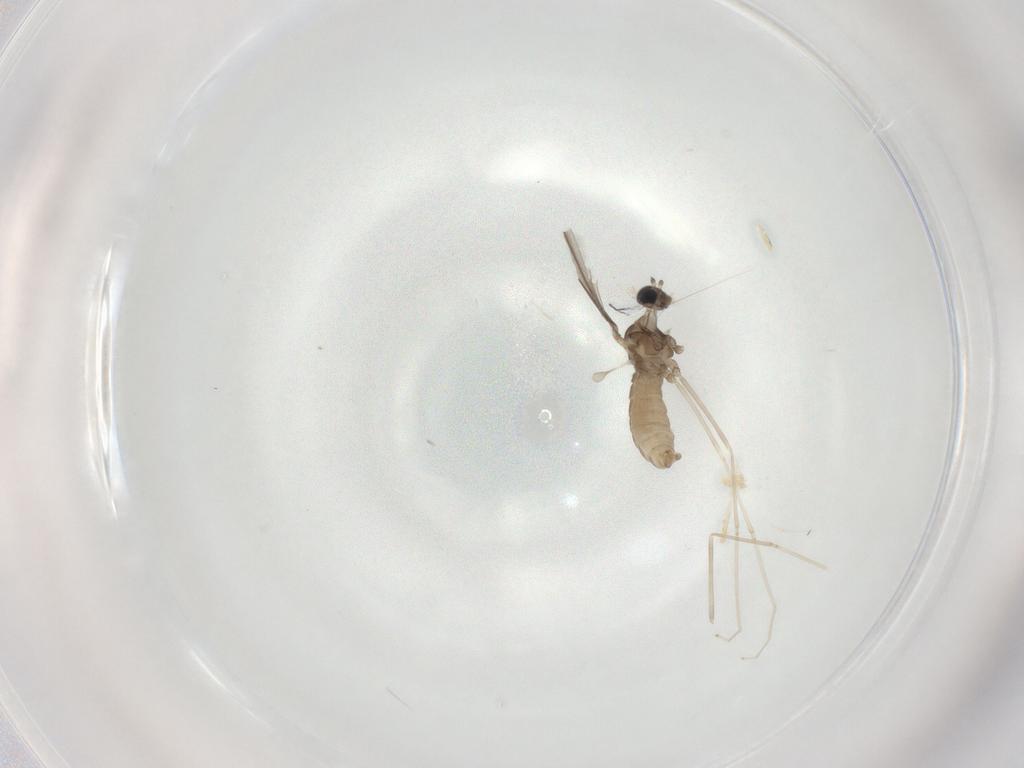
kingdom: Animalia
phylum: Arthropoda
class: Insecta
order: Diptera
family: Cecidomyiidae
